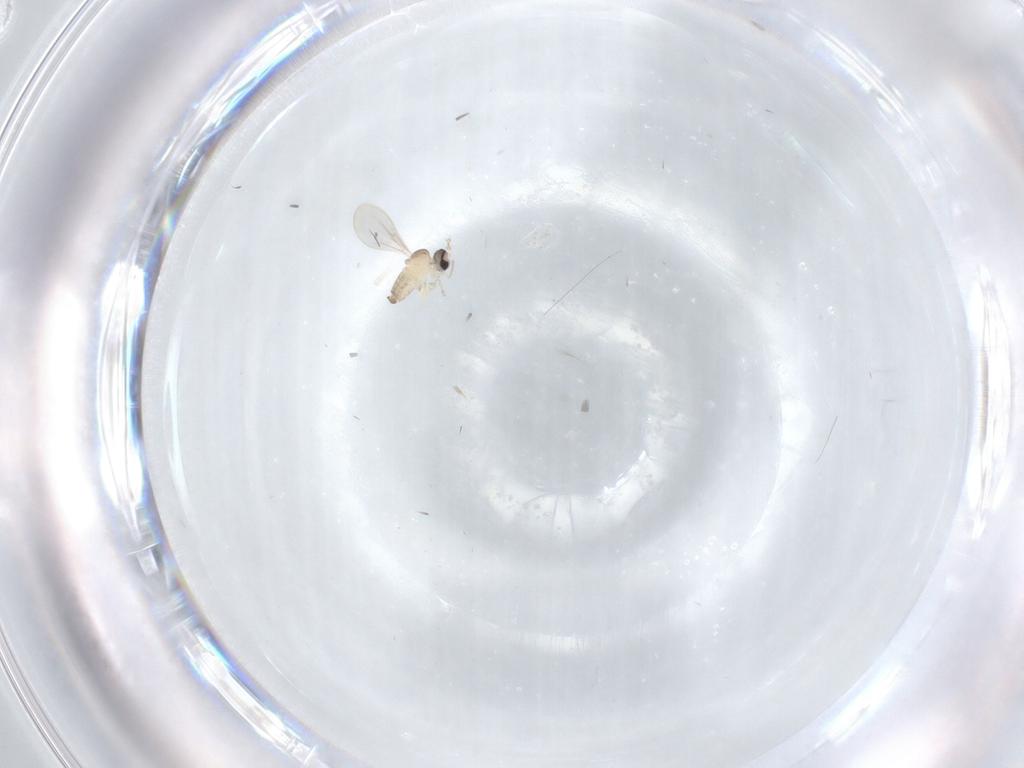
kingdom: Animalia
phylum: Arthropoda
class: Insecta
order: Diptera
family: Cecidomyiidae
